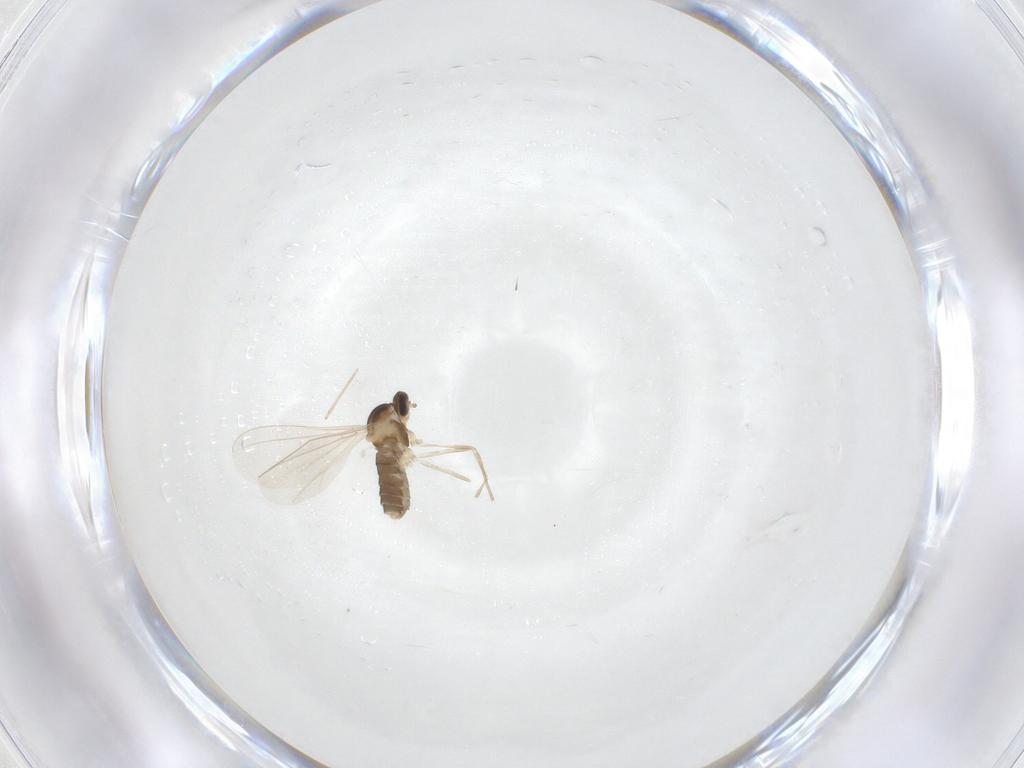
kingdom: Animalia
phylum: Arthropoda
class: Insecta
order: Diptera
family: Cecidomyiidae
